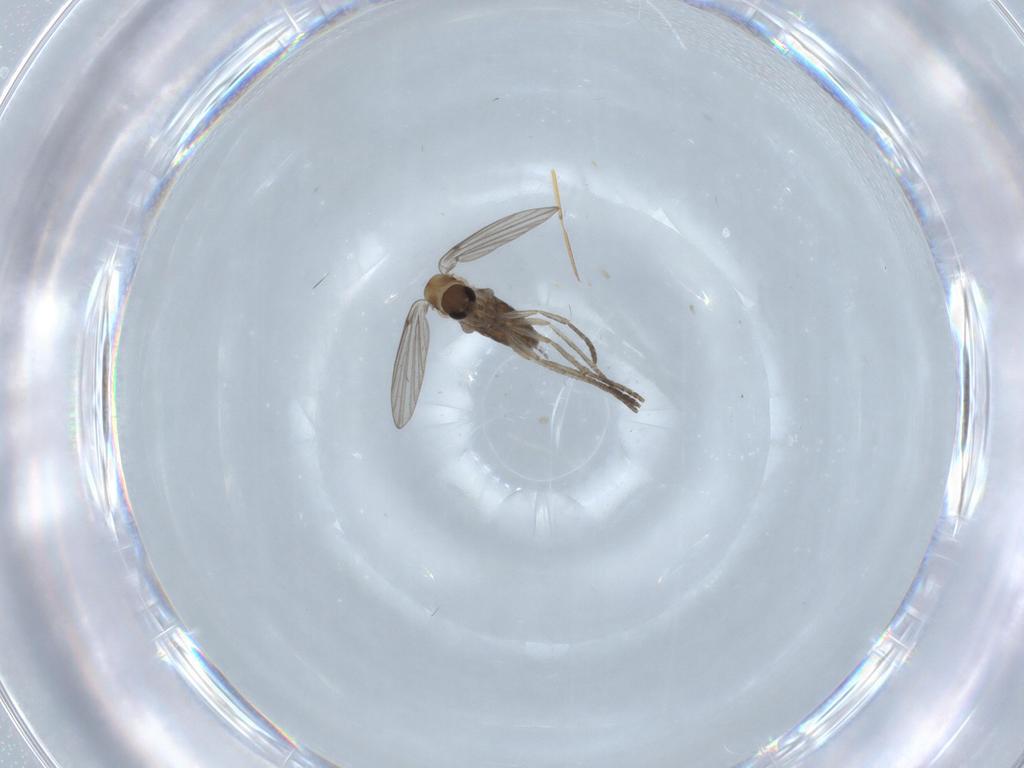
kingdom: Animalia
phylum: Arthropoda
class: Insecta
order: Diptera
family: Psychodidae
